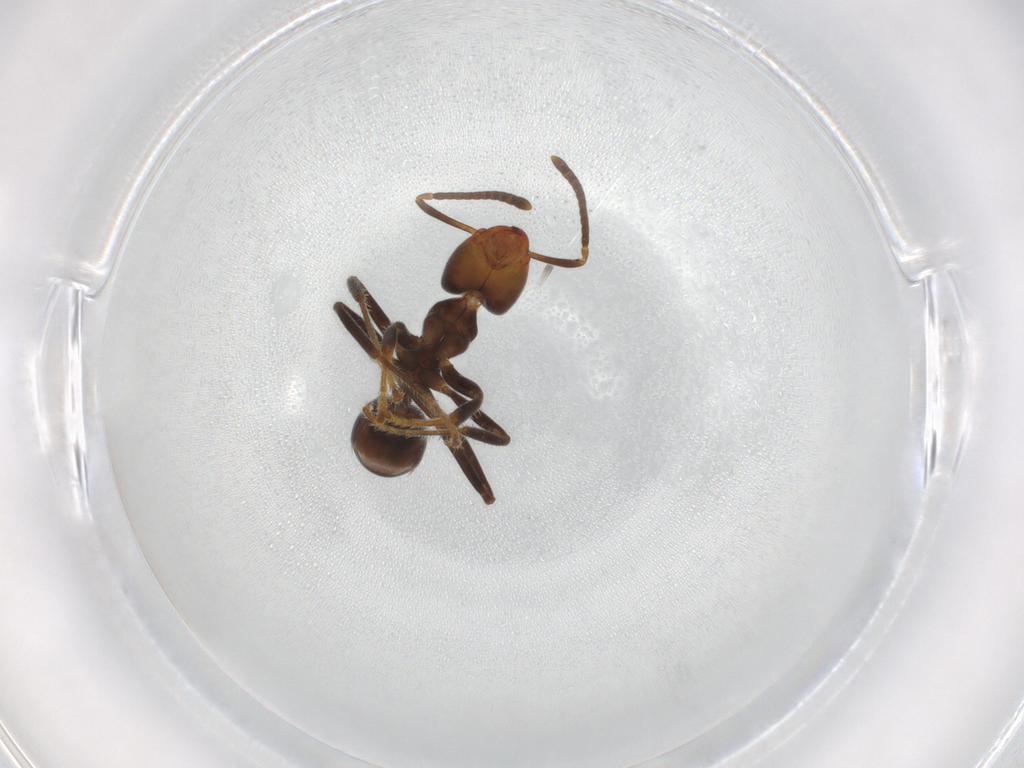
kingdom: Animalia
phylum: Arthropoda
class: Insecta
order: Hymenoptera
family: Formicidae
